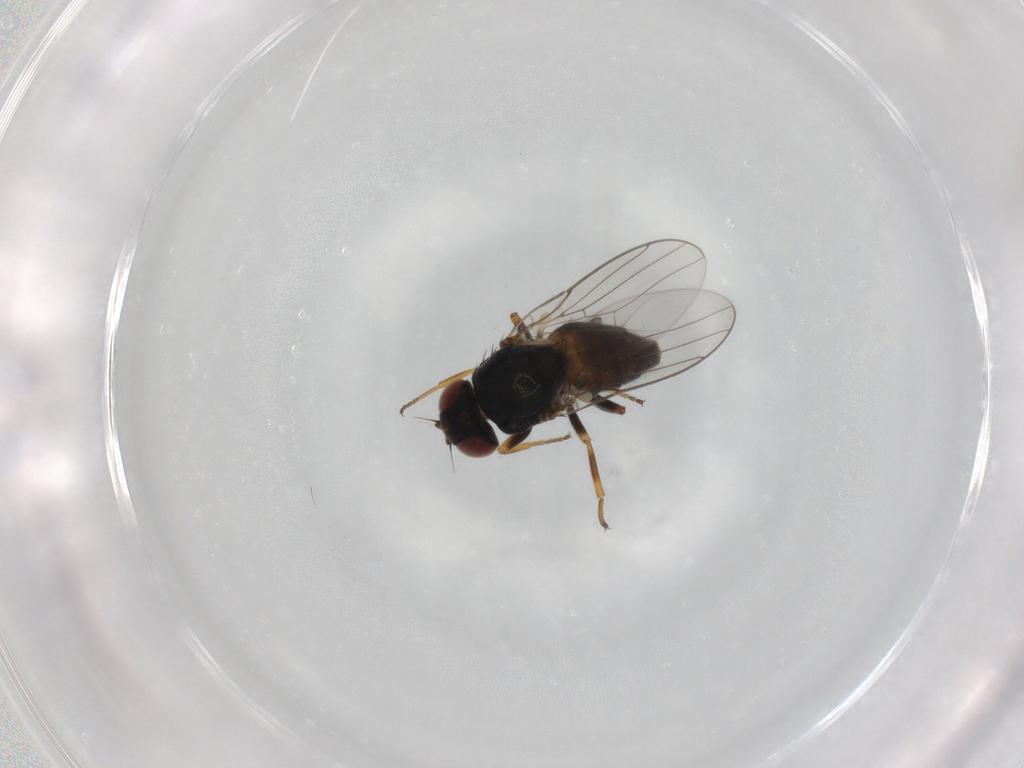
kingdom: Animalia
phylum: Arthropoda
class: Insecta
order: Diptera
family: Chloropidae
